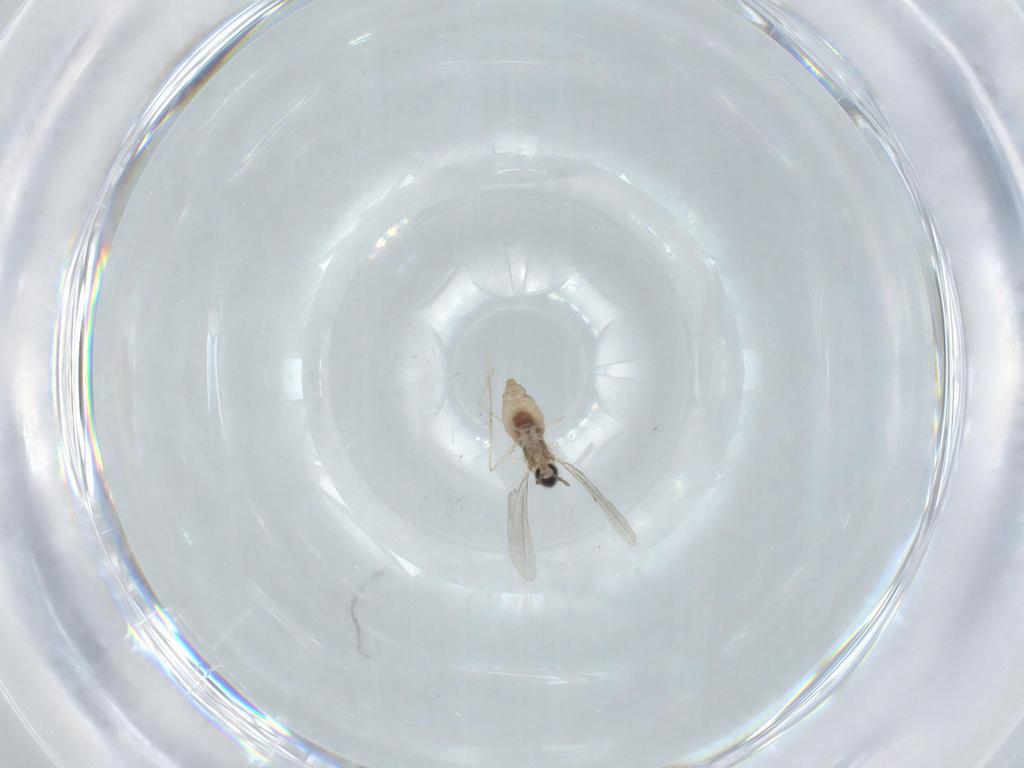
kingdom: Animalia
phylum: Arthropoda
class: Insecta
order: Diptera
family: Cecidomyiidae
